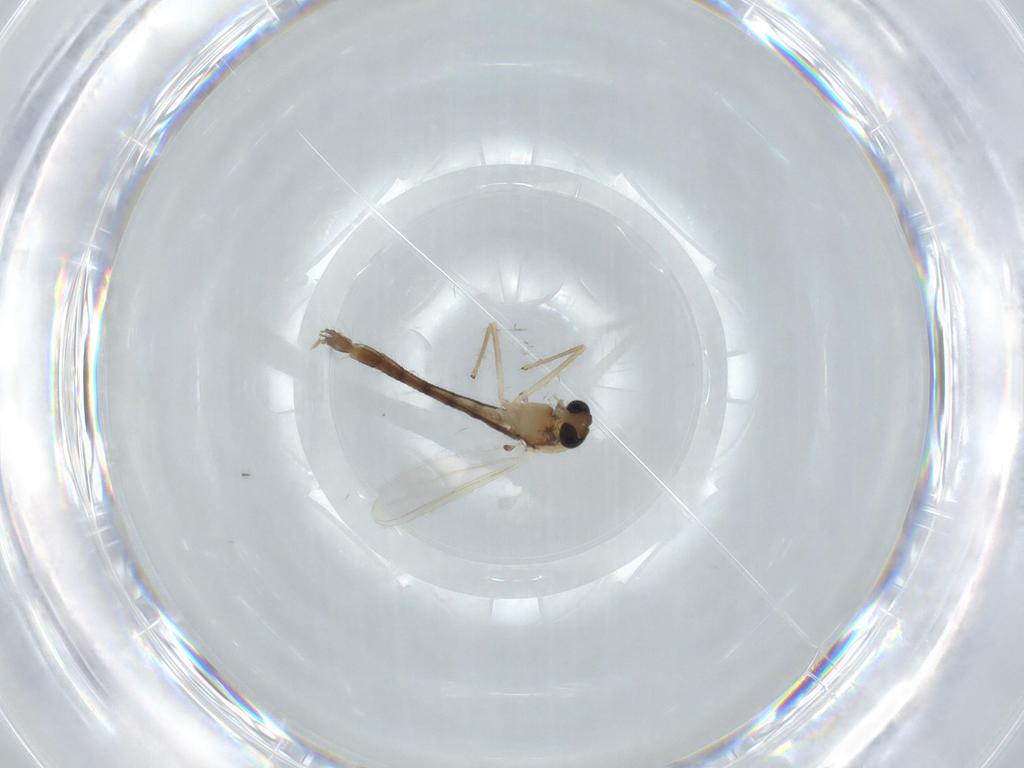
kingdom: Animalia
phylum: Arthropoda
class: Insecta
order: Diptera
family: Chironomidae
